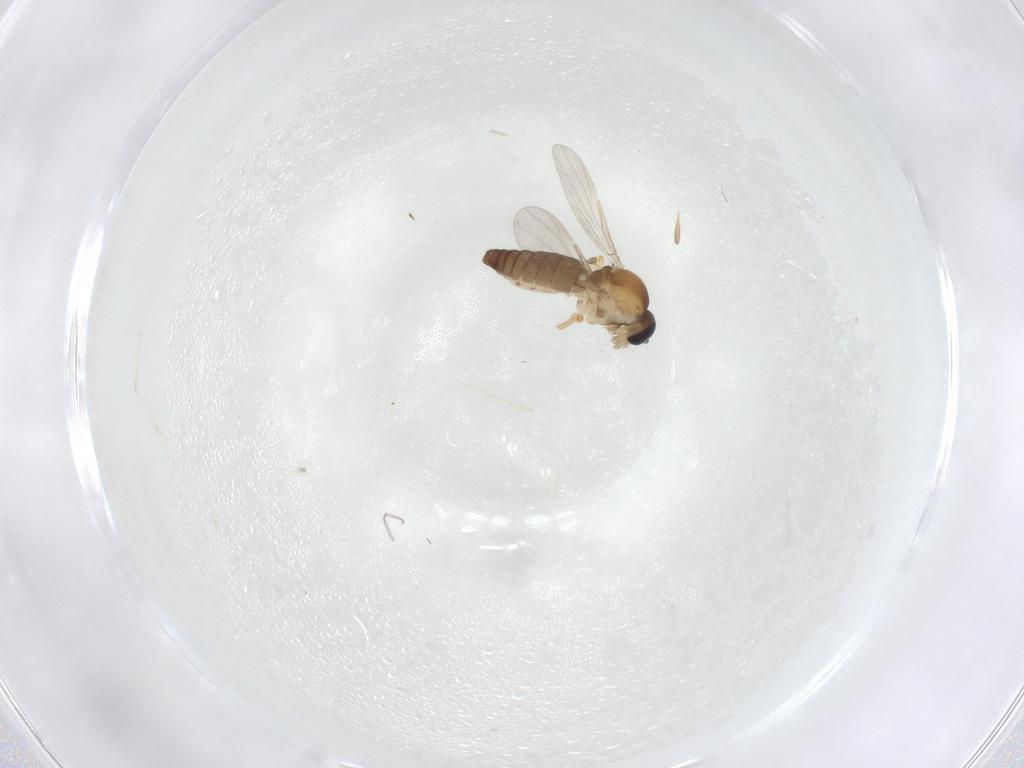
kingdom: Animalia
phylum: Arthropoda
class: Insecta
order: Diptera
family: Ceratopogonidae
